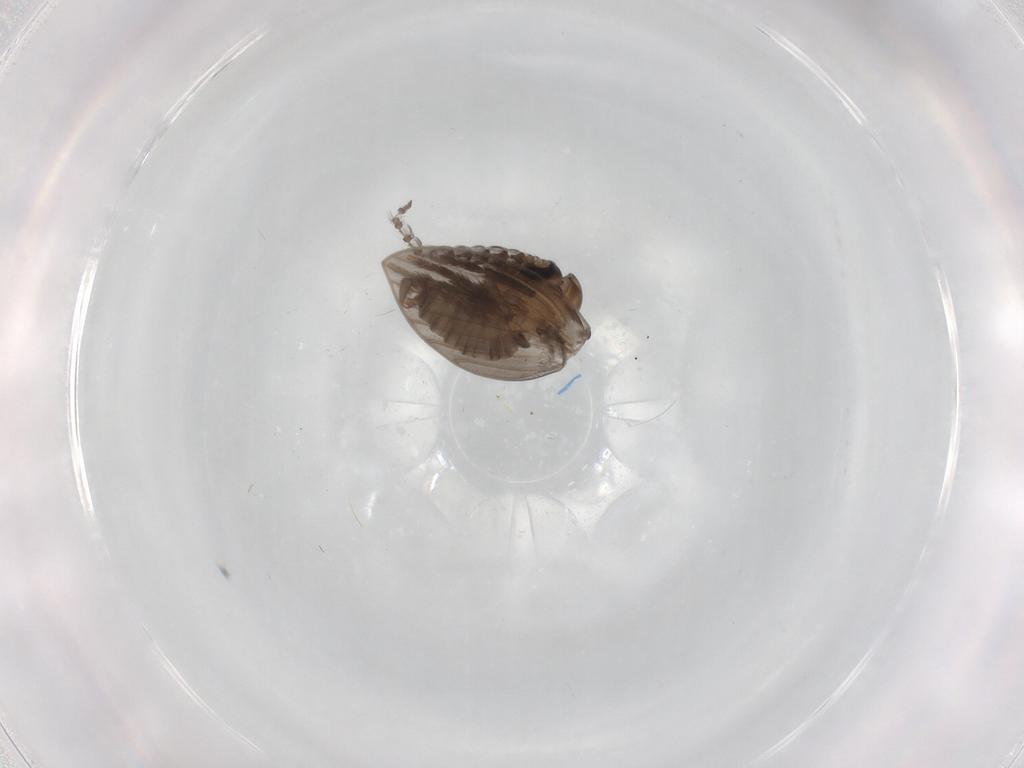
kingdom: Animalia
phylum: Arthropoda
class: Insecta
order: Diptera
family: Psychodidae
